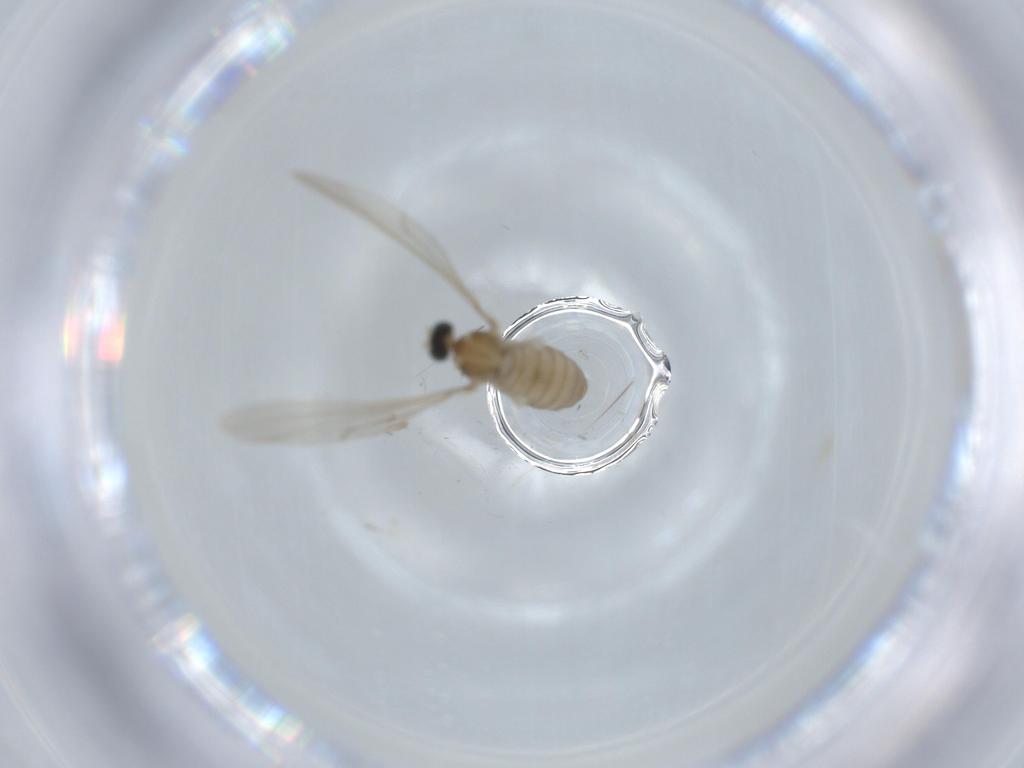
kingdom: Animalia
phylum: Arthropoda
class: Insecta
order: Diptera
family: Cecidomyiidae
